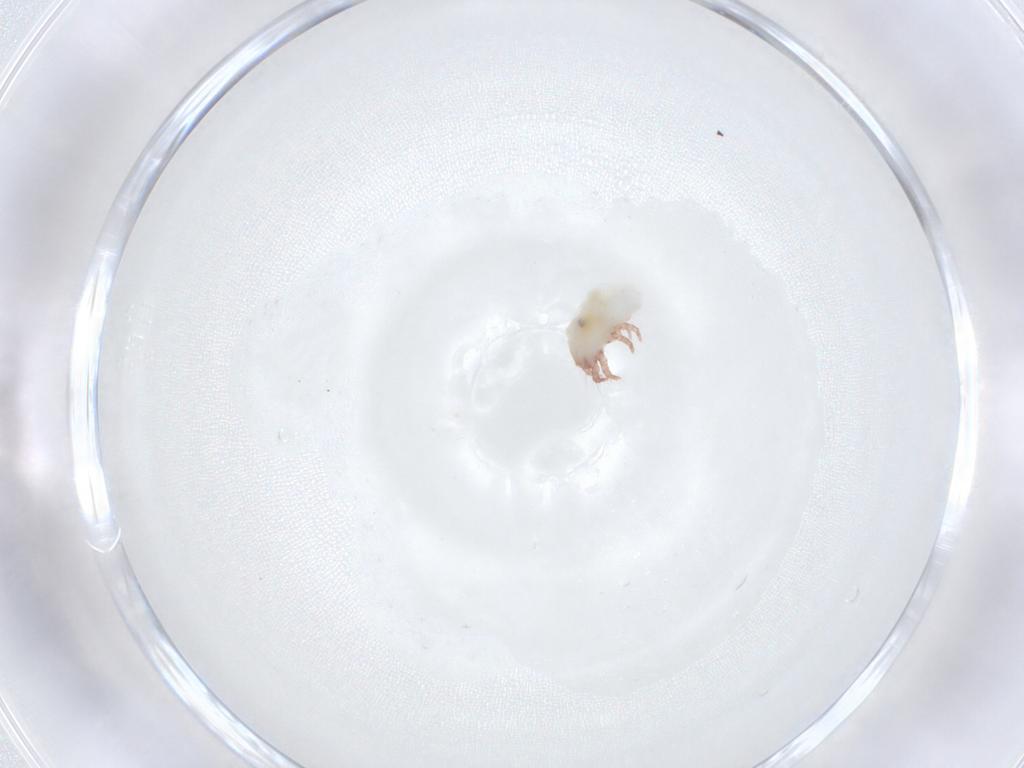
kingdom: Animalia
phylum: Arthropoda
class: Arachnida
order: Sarcoptiformes
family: Acaridae
